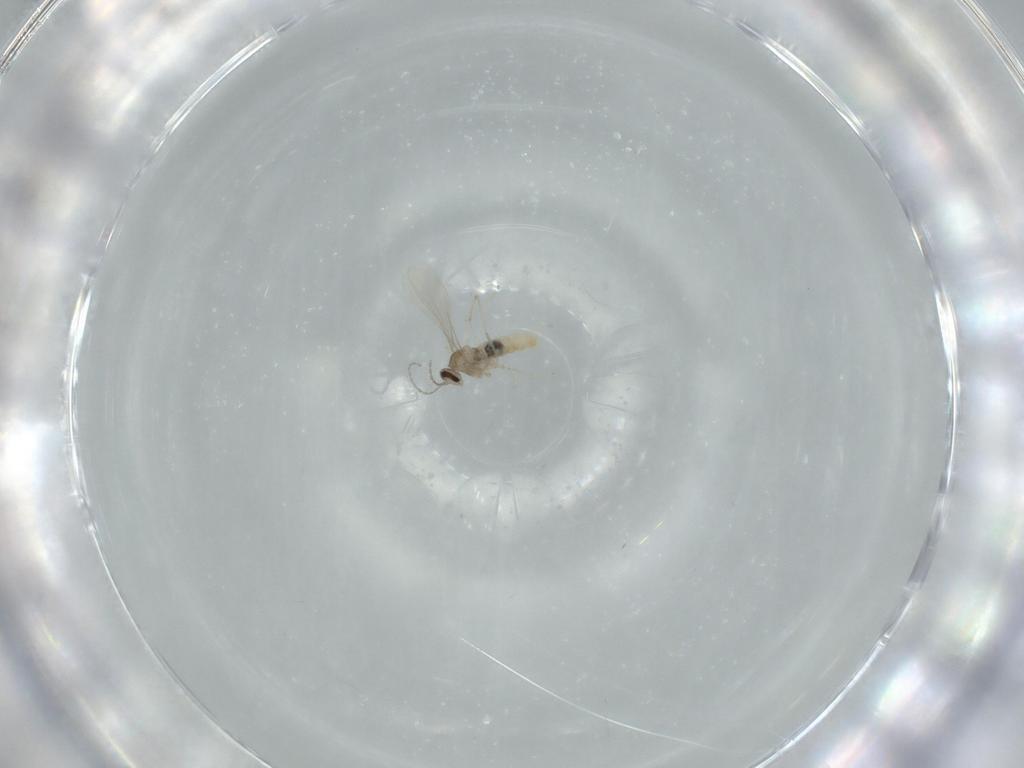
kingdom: Animalia
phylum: Arthropoda
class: Insecta
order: Diptera
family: Cecidomyiidae
